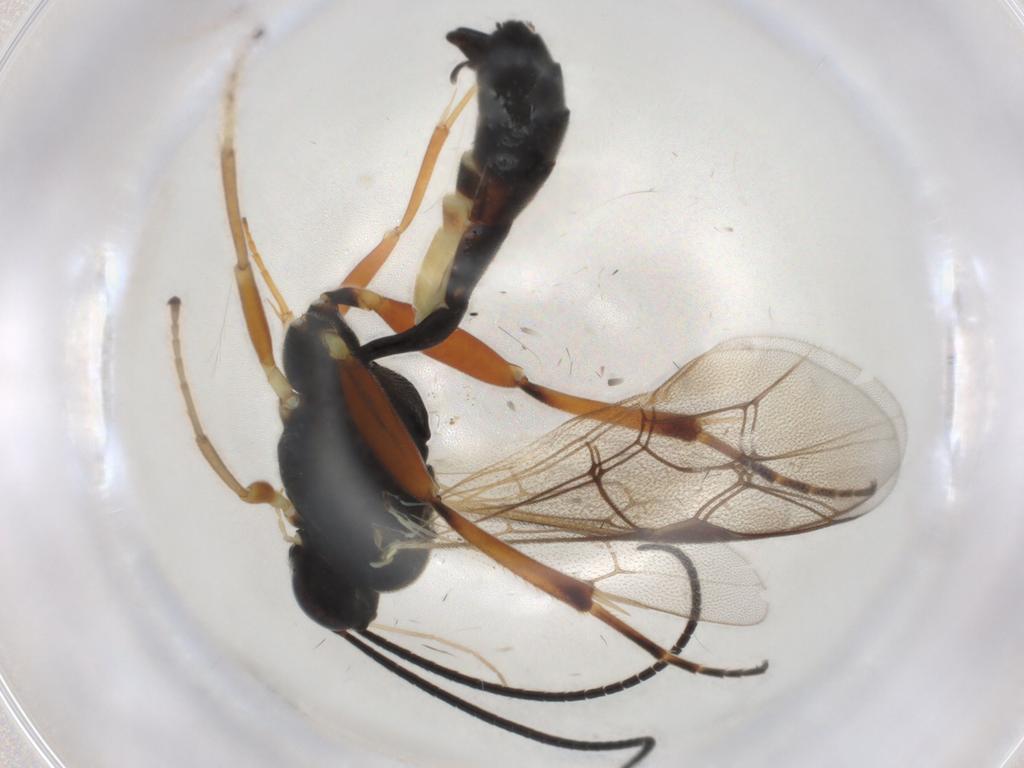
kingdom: Animalia
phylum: Arthropoda
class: Insecta
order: Hymenoptera
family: Ichneumonidae
